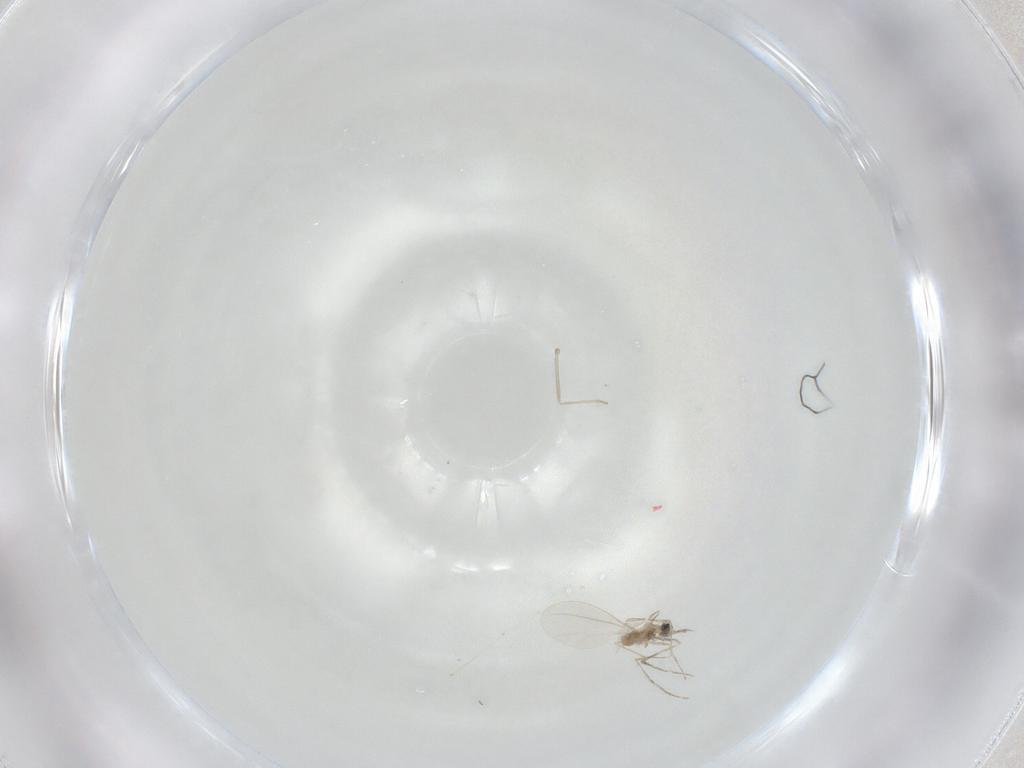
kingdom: Animalia
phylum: Arthropoda
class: Insecta
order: Diptera
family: Cecidomyiidae
